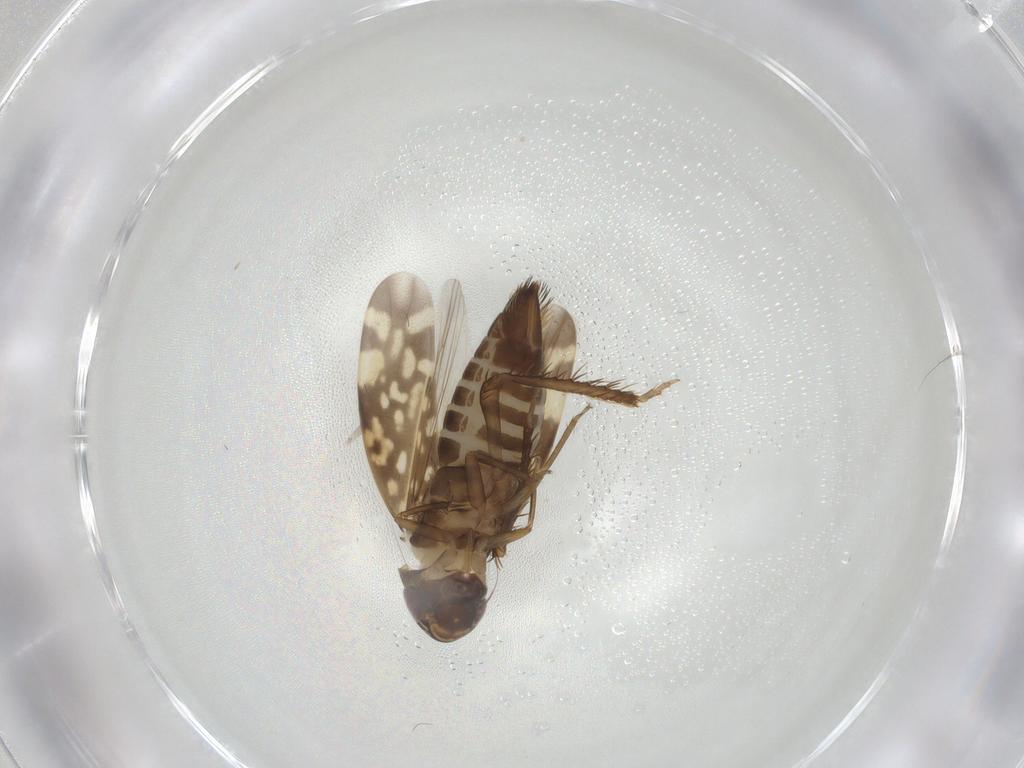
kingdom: Animalia
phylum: Arthropoda
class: Insecta
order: Hemiptera
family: Cicadellidae
